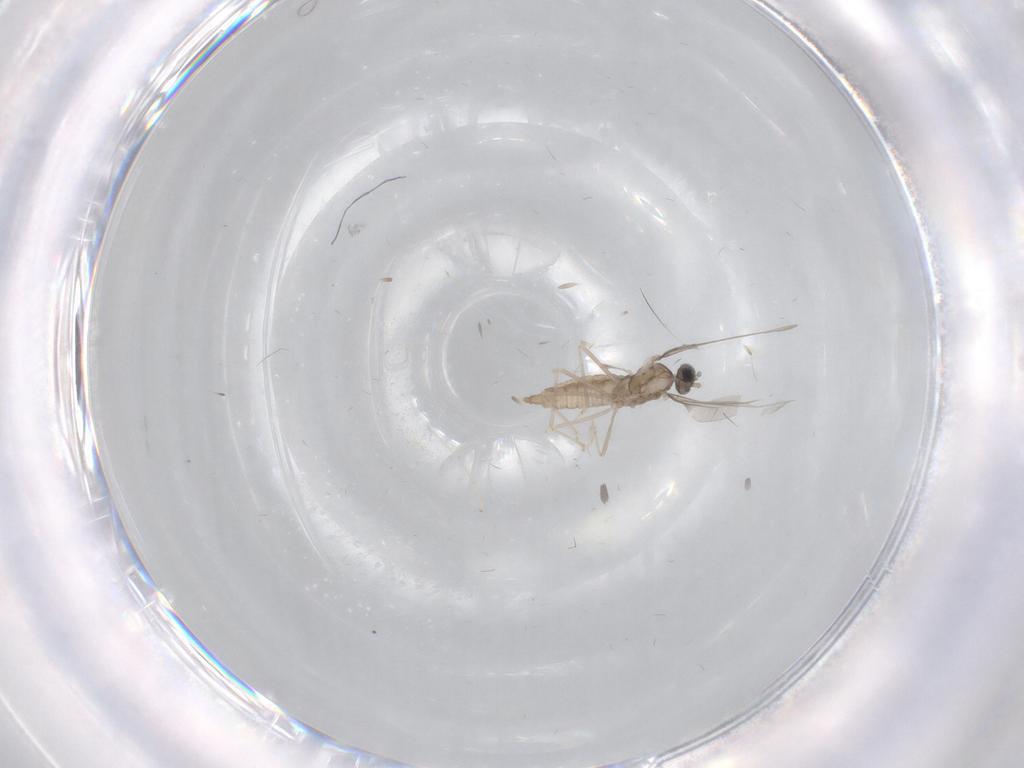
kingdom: Animalia
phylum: Arthropoda
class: Insecta
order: Diptera
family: Cecidomyiidae
